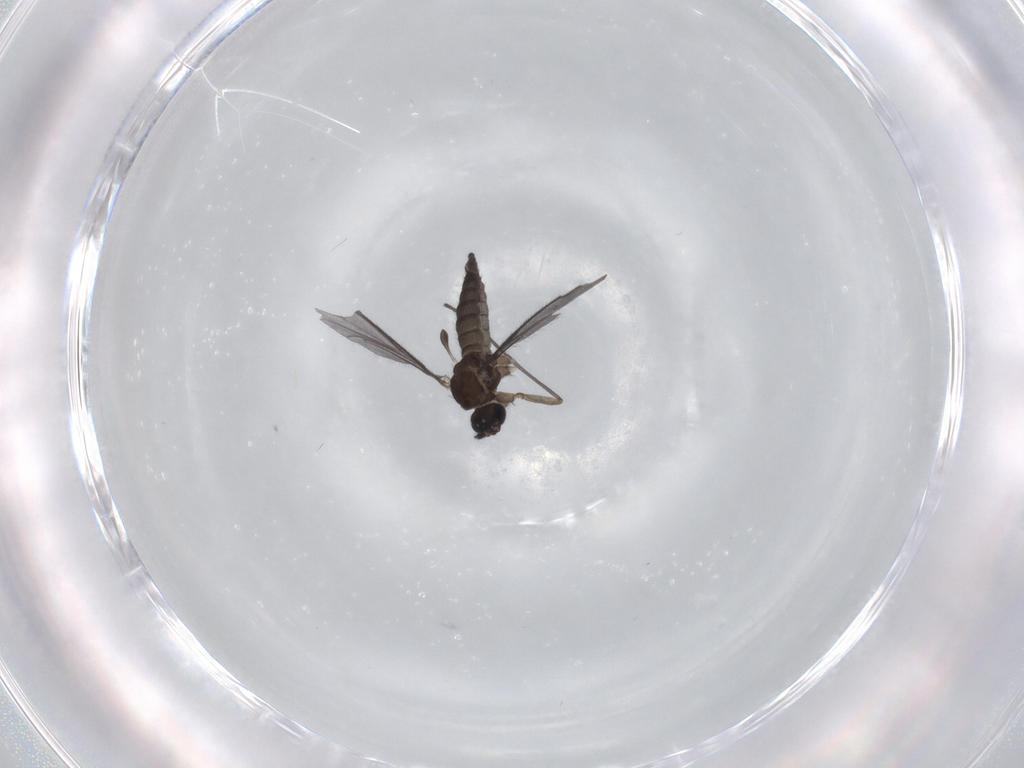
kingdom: Animalia
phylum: Arthropoda
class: Insecta
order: Diptera
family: Sciaridae
